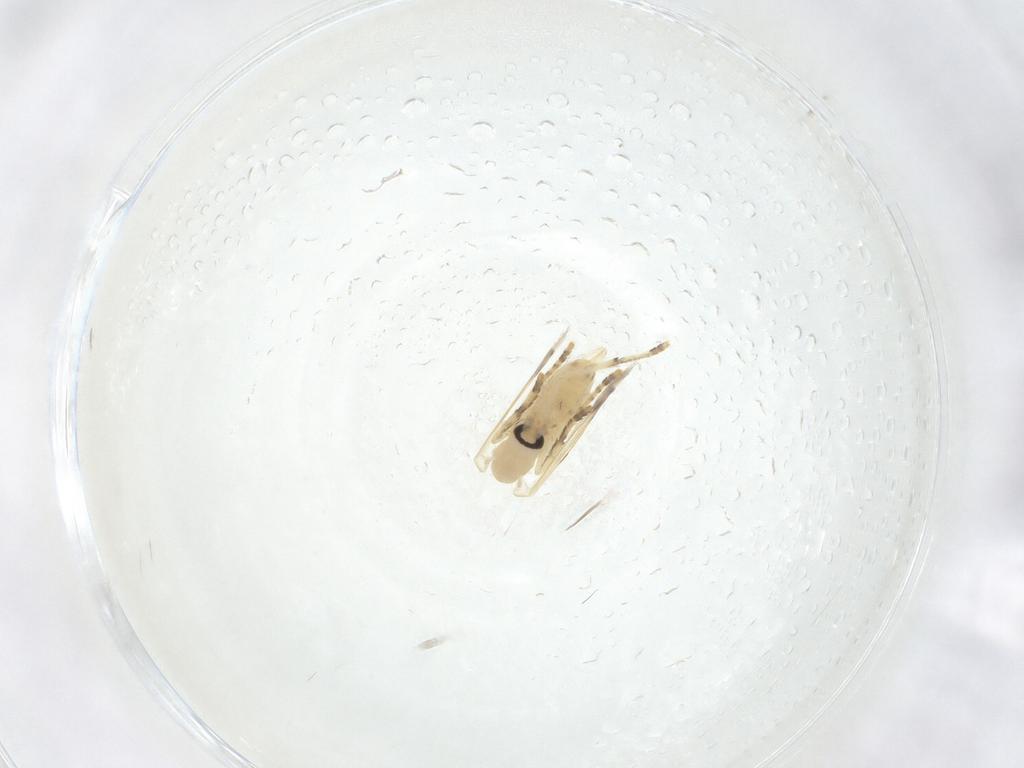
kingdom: Animalia
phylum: Arthropoda
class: Insecta
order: Diptera
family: Psychodidae
